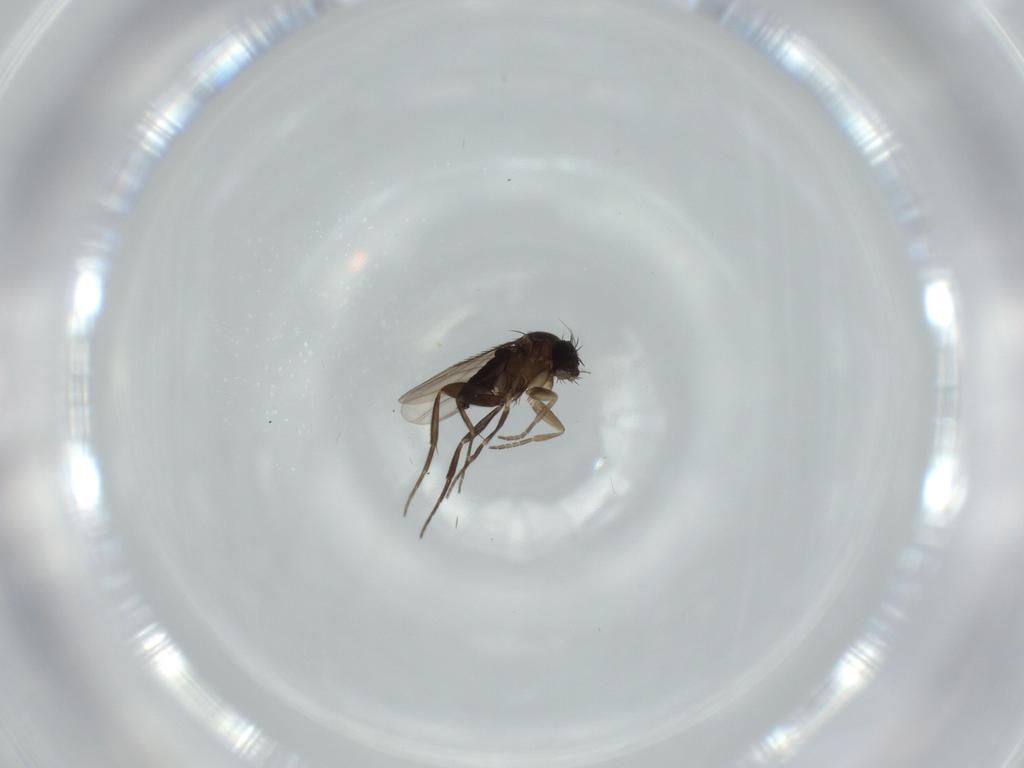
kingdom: Animalia
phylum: Arthropoda
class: Insecta
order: Diptera
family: Phoridae
